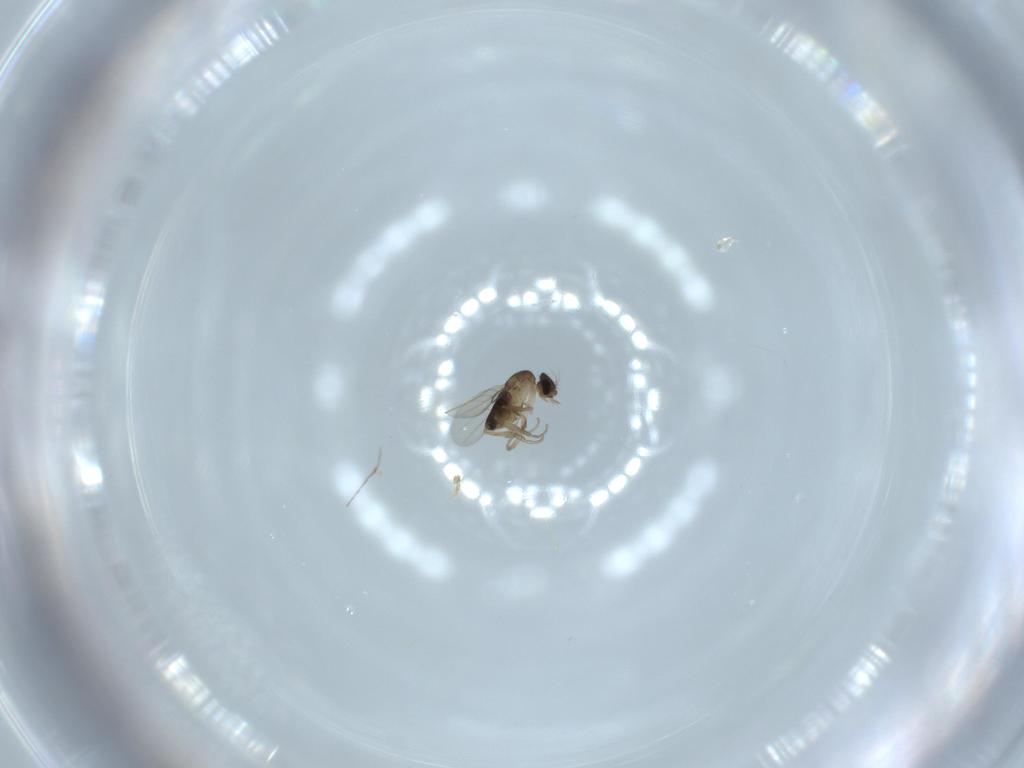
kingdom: Animalia
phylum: Arthropoda
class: Insecta
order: Diptera
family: Phoridae
